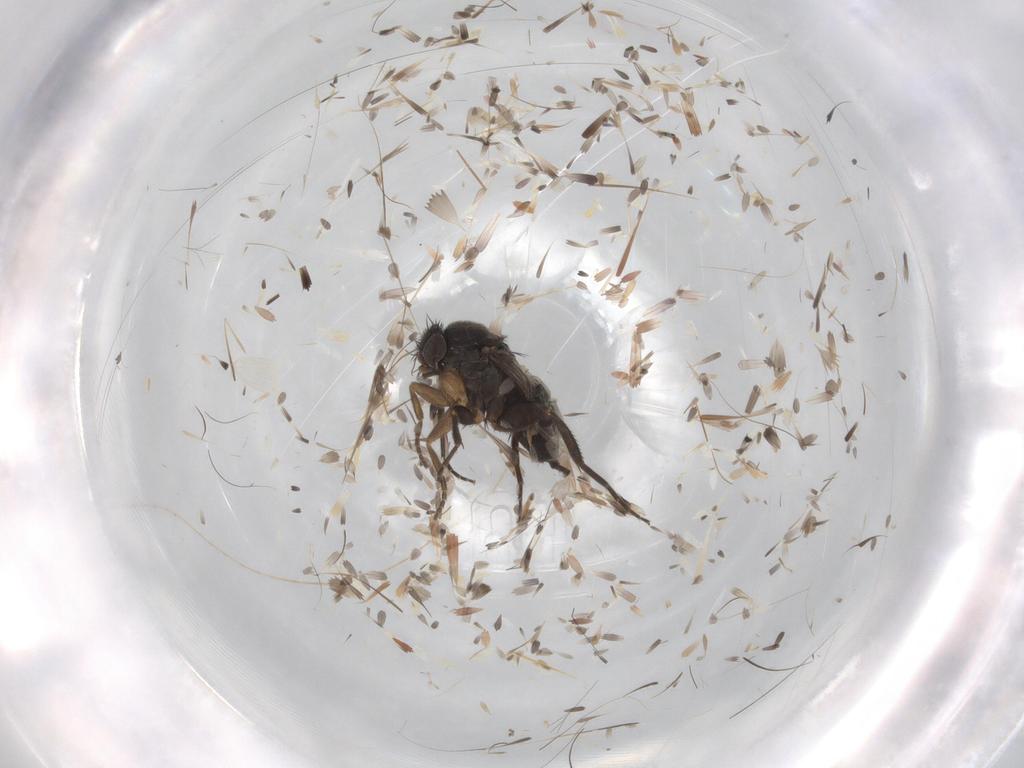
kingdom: Animalia
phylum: Arthropoda
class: Insecta
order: Diptera
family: Phoridae
